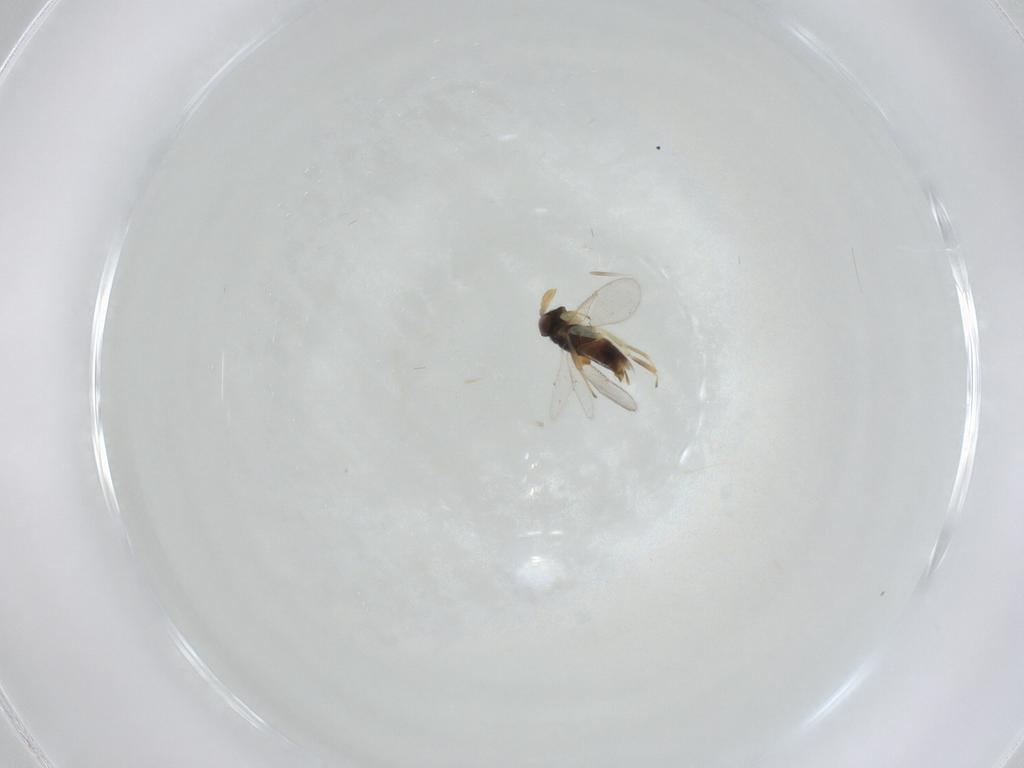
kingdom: Animalia
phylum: Arthropoda
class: Insecta
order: Hymenoptera
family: Aphelinidae
